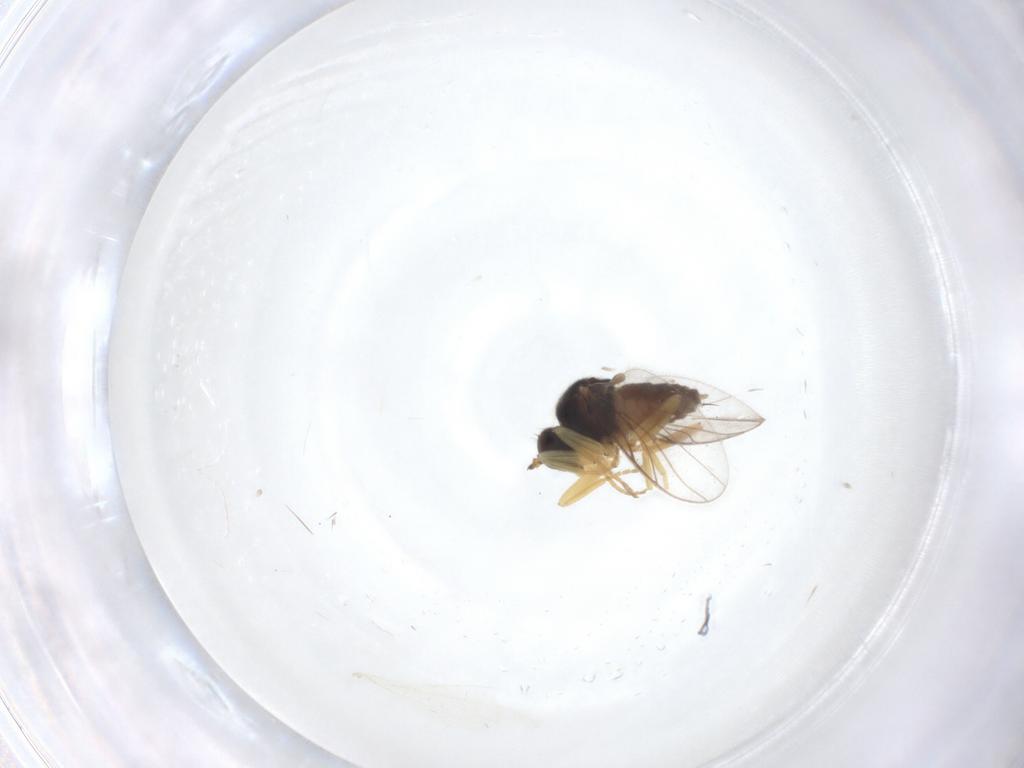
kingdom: Animalia
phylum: Arthropoda
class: Insecta
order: Diptera
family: Hybotidae
